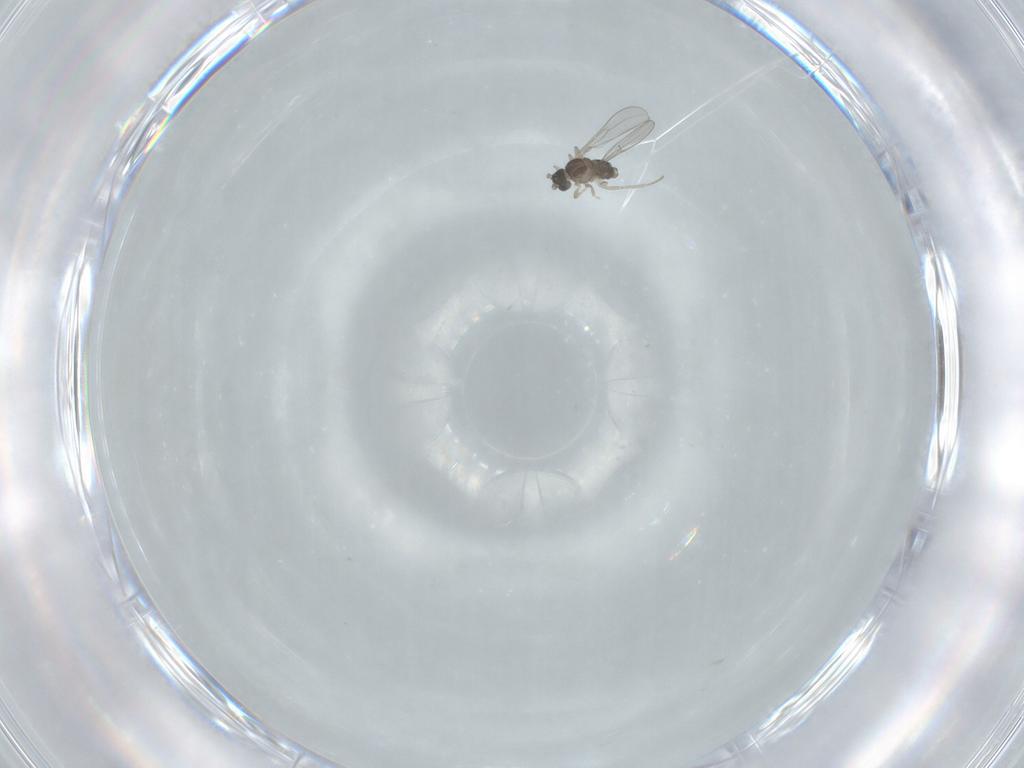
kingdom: Animalia
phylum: Arthropoda
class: Insecta
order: Diptera
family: Cecidomyiidae
